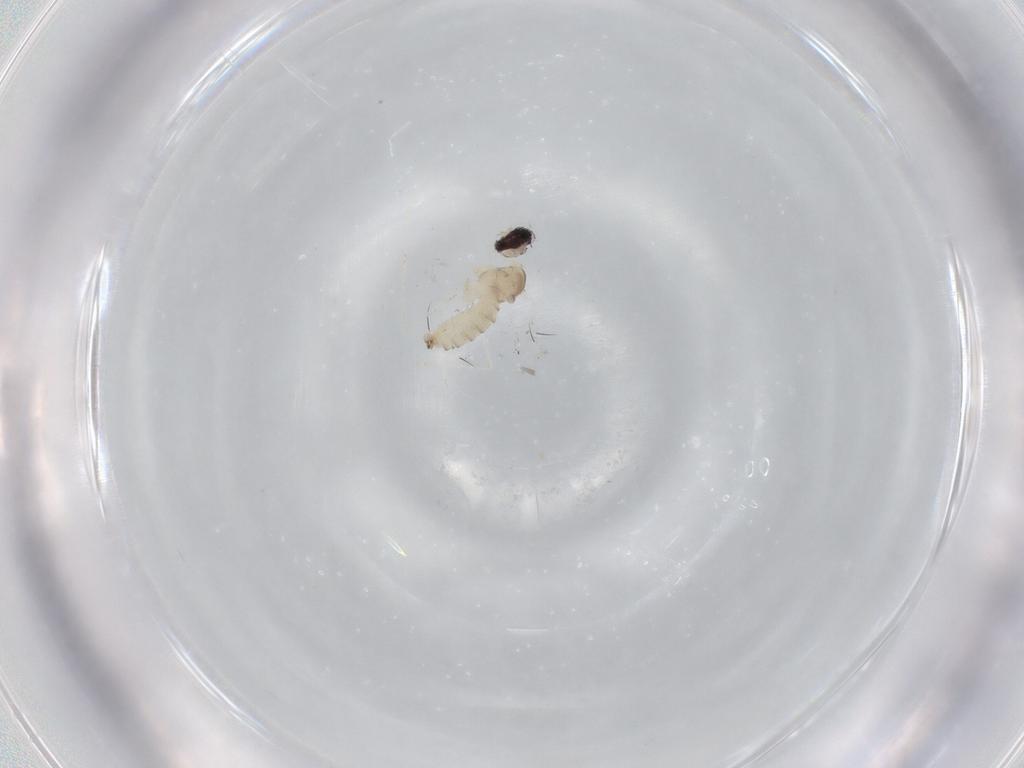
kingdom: Animalia
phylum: Arthropoda
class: Insecta
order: Diptera
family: Cecidomyiidae
